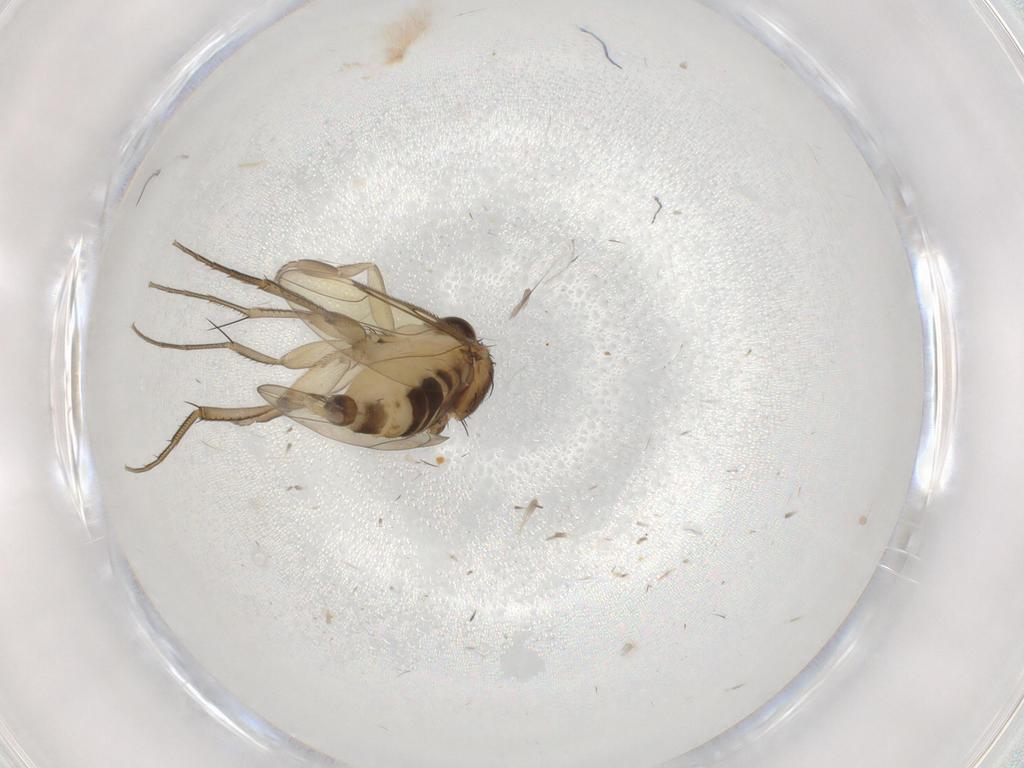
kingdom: Animalia
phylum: Arthropoda
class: Insecta
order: Diptera
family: Phoridae
